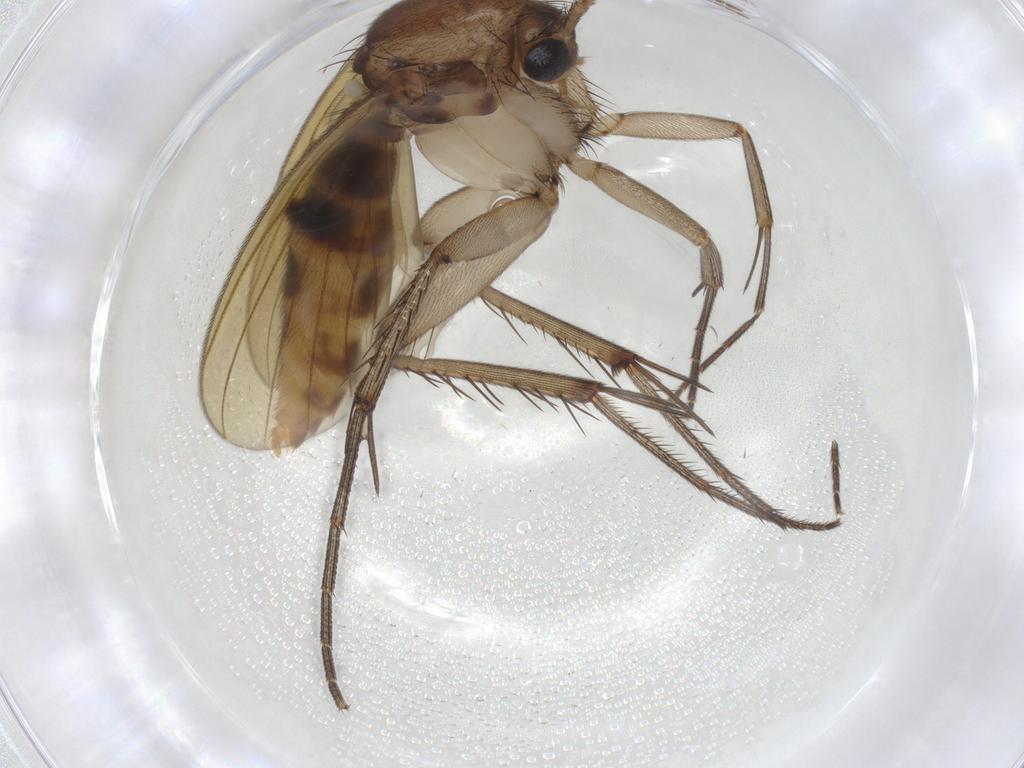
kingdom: Animalia
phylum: Arthropoda
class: Insecta
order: Diptera
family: Mycetophilidae
